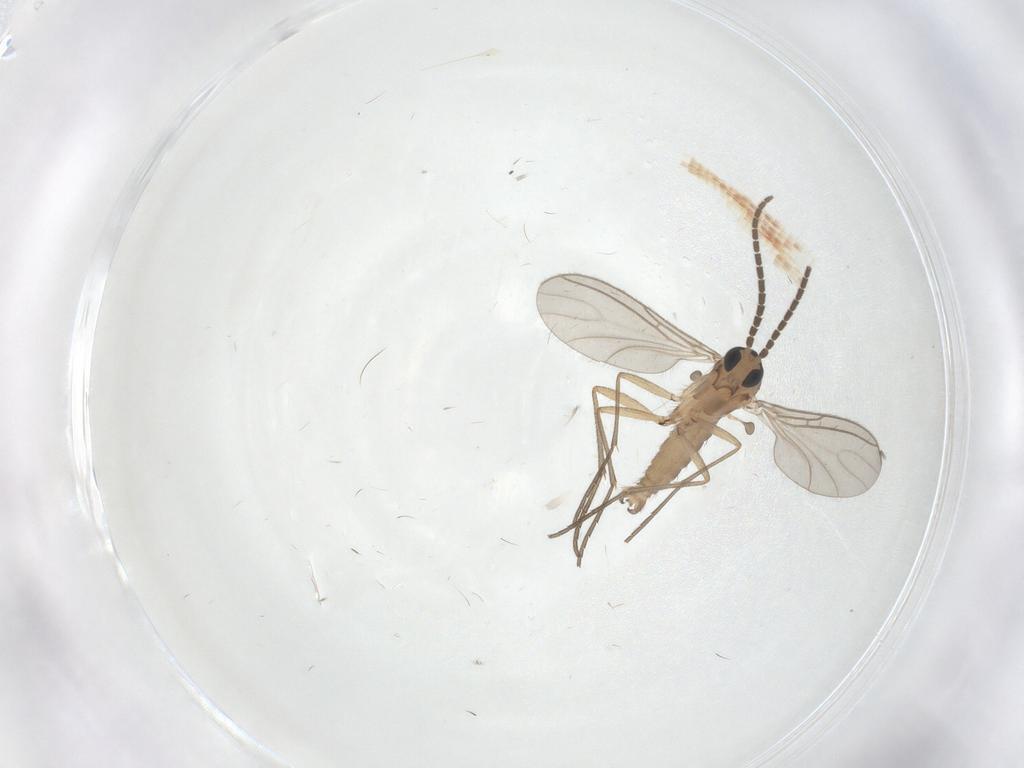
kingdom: Animalia
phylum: Arthropoda
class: Insecta
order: Diptera
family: Sciaridae
